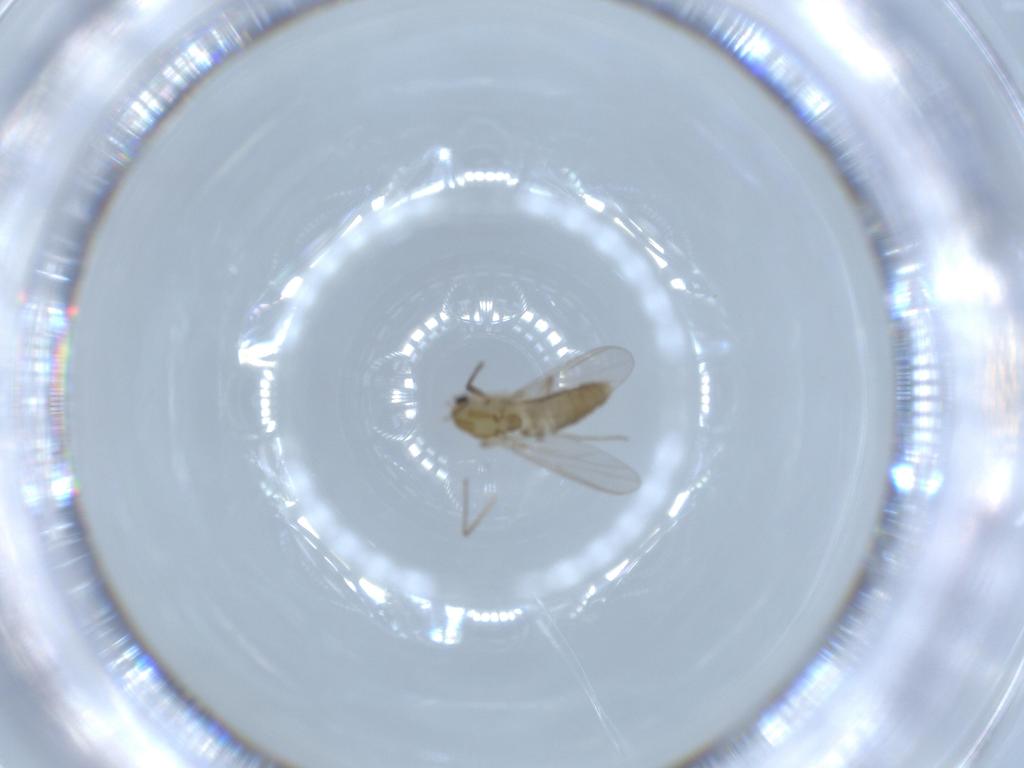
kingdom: Animalia
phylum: Arthropoda
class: Insecta
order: Diptera
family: Chironomidae
